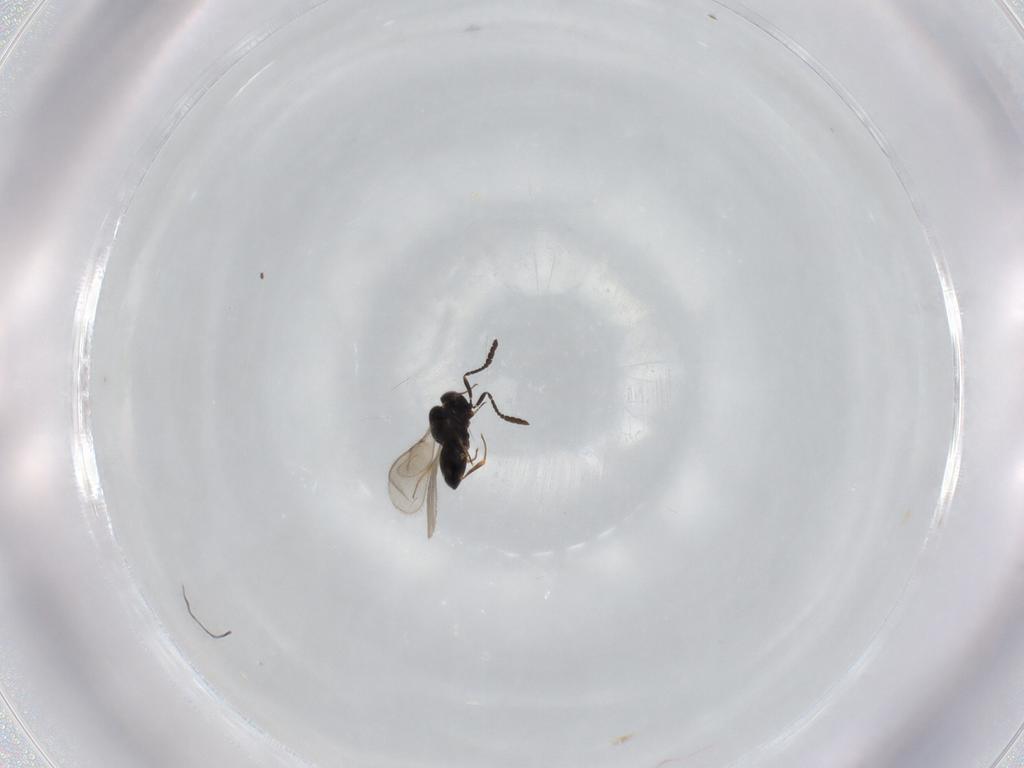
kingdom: Animalia
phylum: Arthropoda
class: Insecta
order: Hymenoptera
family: Scelionidae
